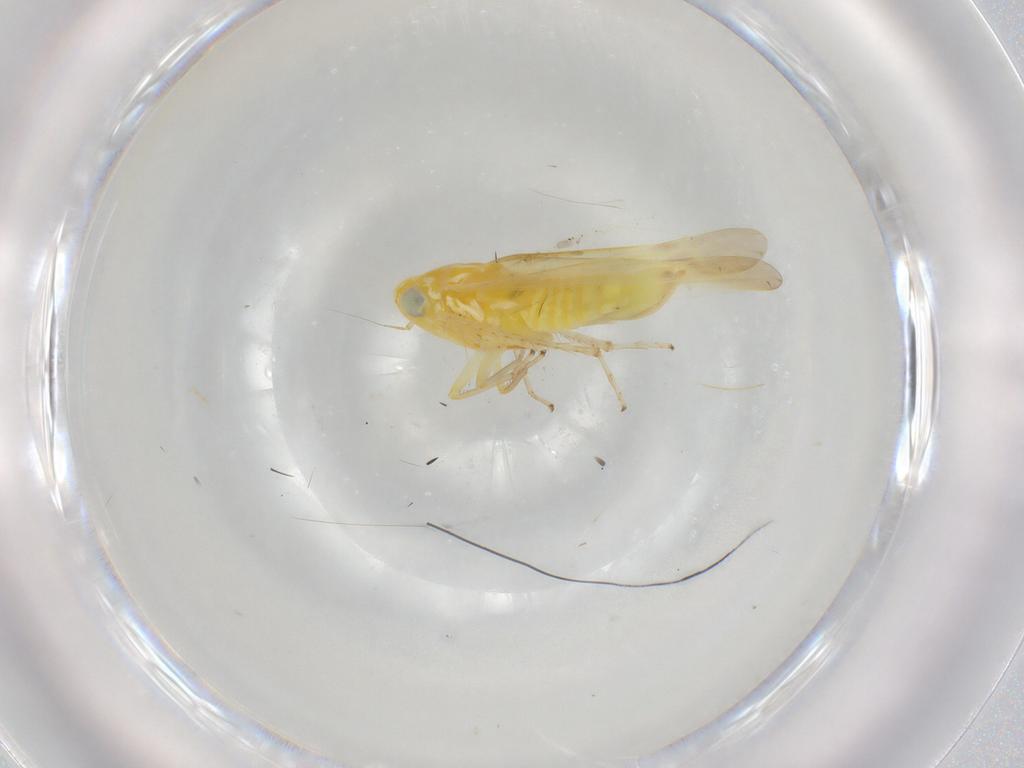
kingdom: Animalia
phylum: Arthropoda
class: Insecta
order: Hemiptera
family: Cicadellidae
